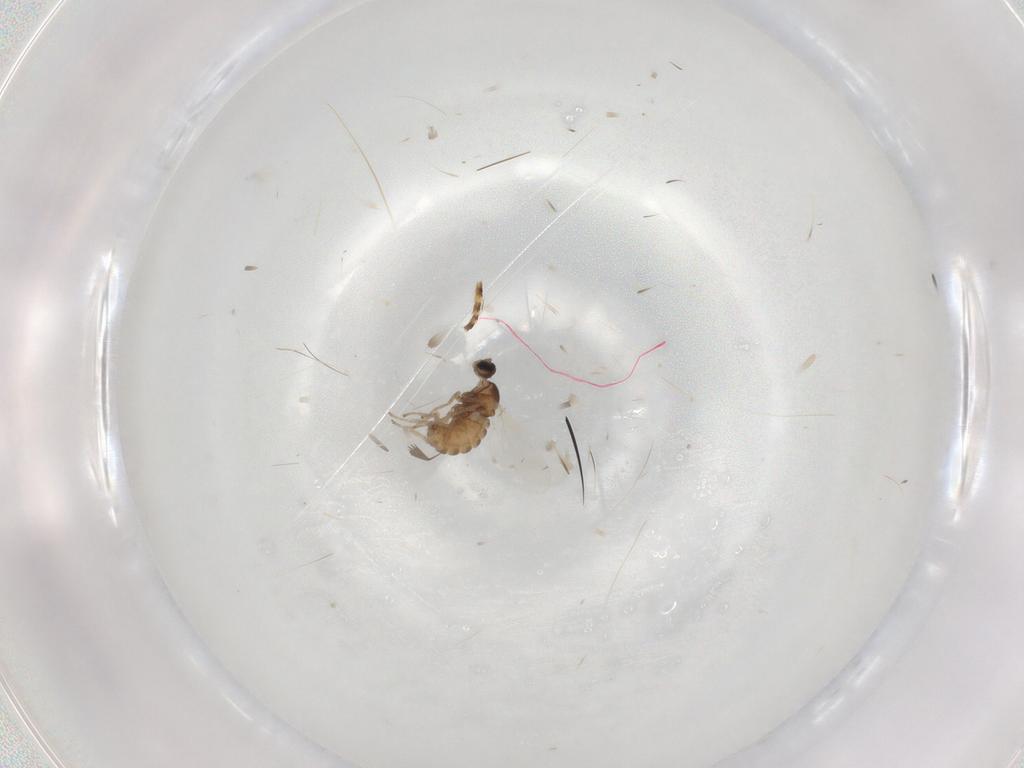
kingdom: Animalia
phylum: Arthropoda
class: Insecta
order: Diptera
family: Cecidomyiidae
